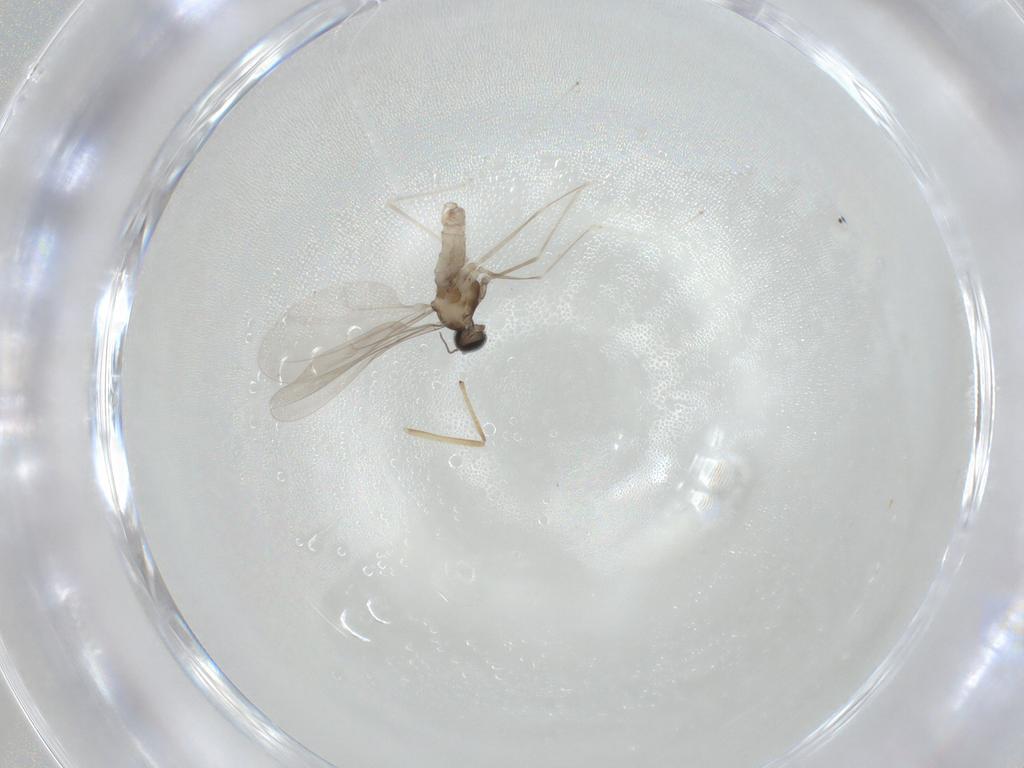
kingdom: Animalia
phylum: Arthropoda
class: Insecta
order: Diptera
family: Cecidomyiidae
